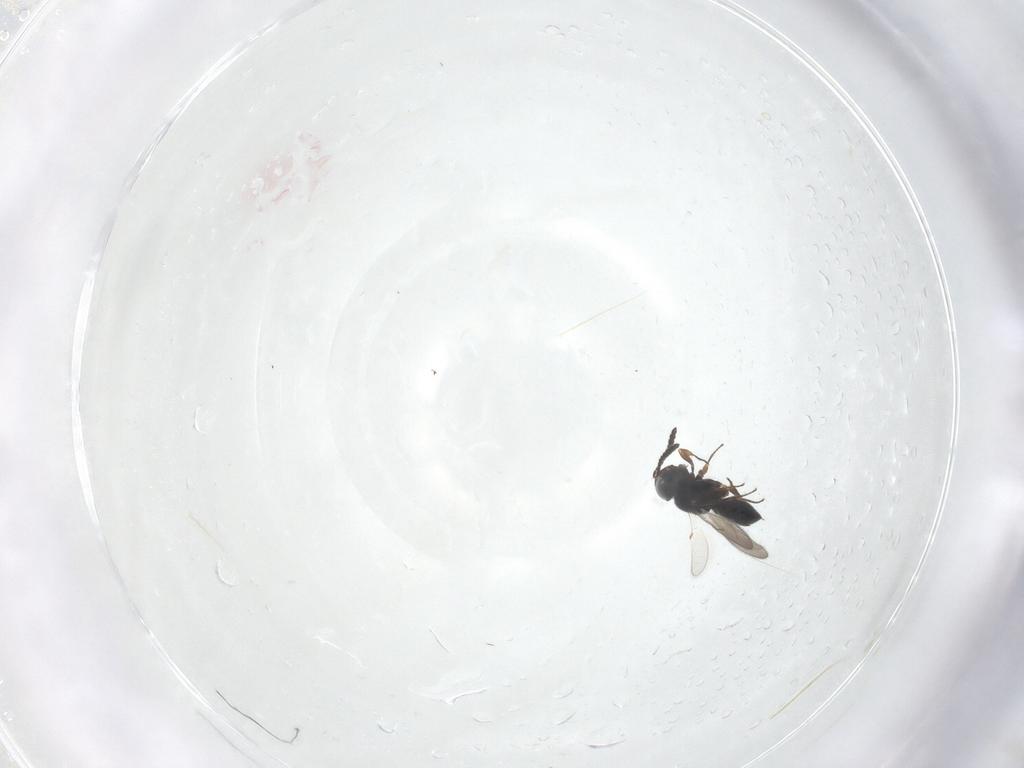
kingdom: Animalia
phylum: Arthropoda
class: Insecta
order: Hymenoptera
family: Scelionidae
